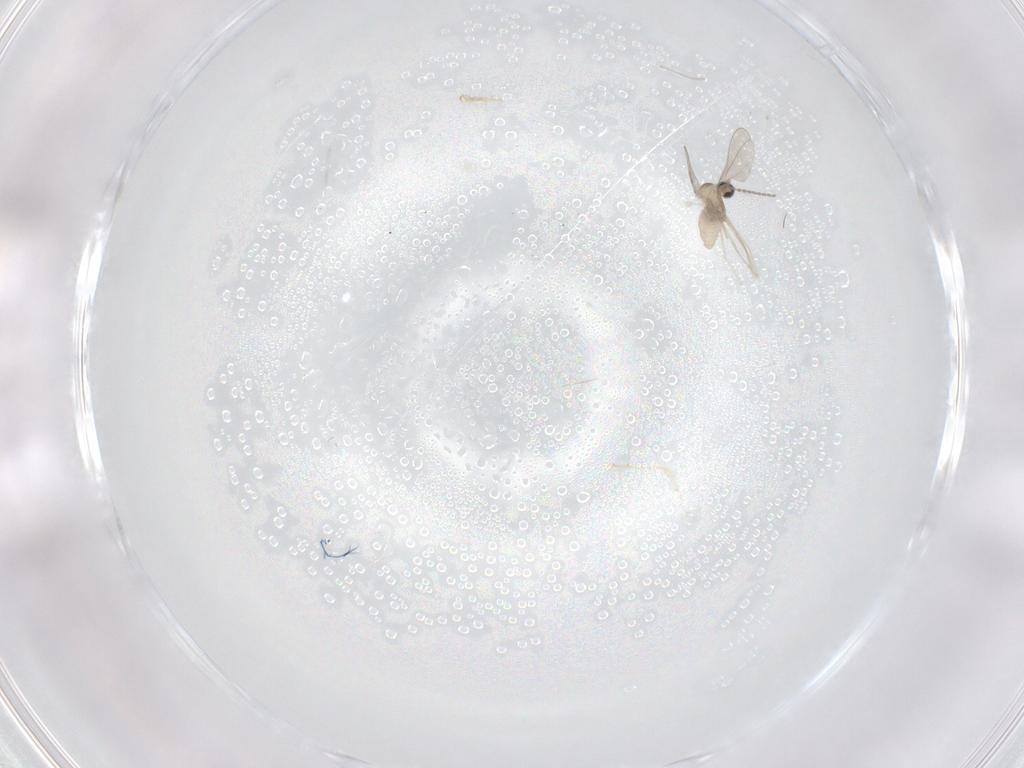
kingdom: Animalia
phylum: Arthropoda
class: Insecta
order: Diptera
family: Cecidomyiidae
